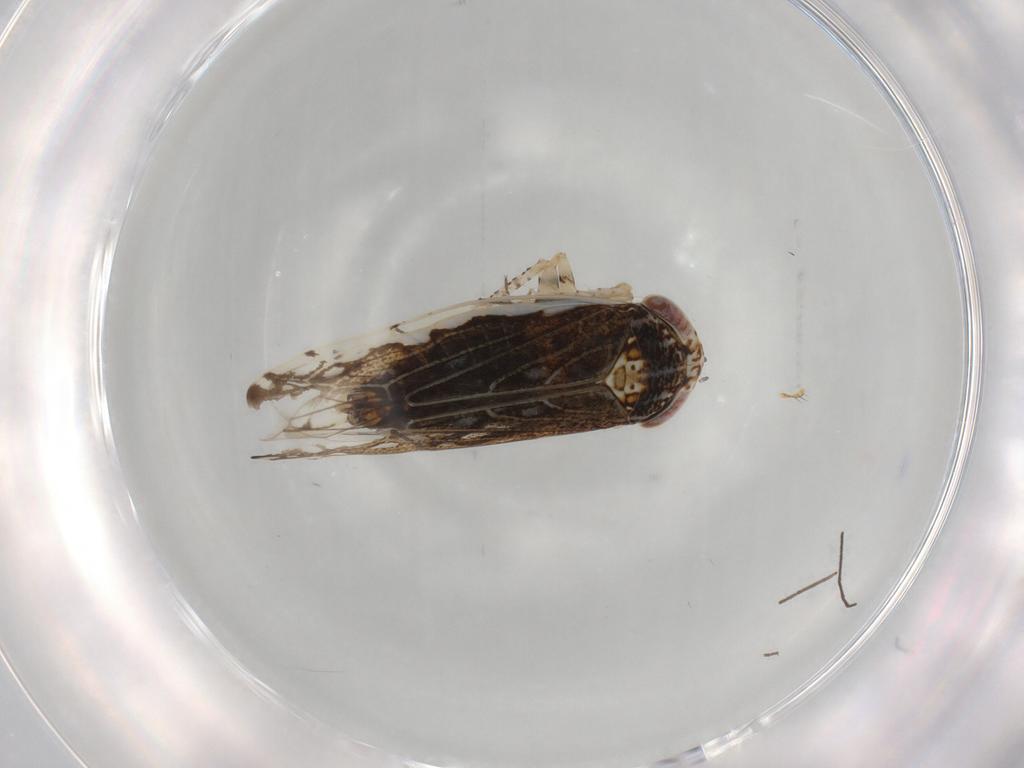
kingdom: Animalia
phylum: Arthropoda
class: Insecta
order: Hemiptera
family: Cicadellidae
